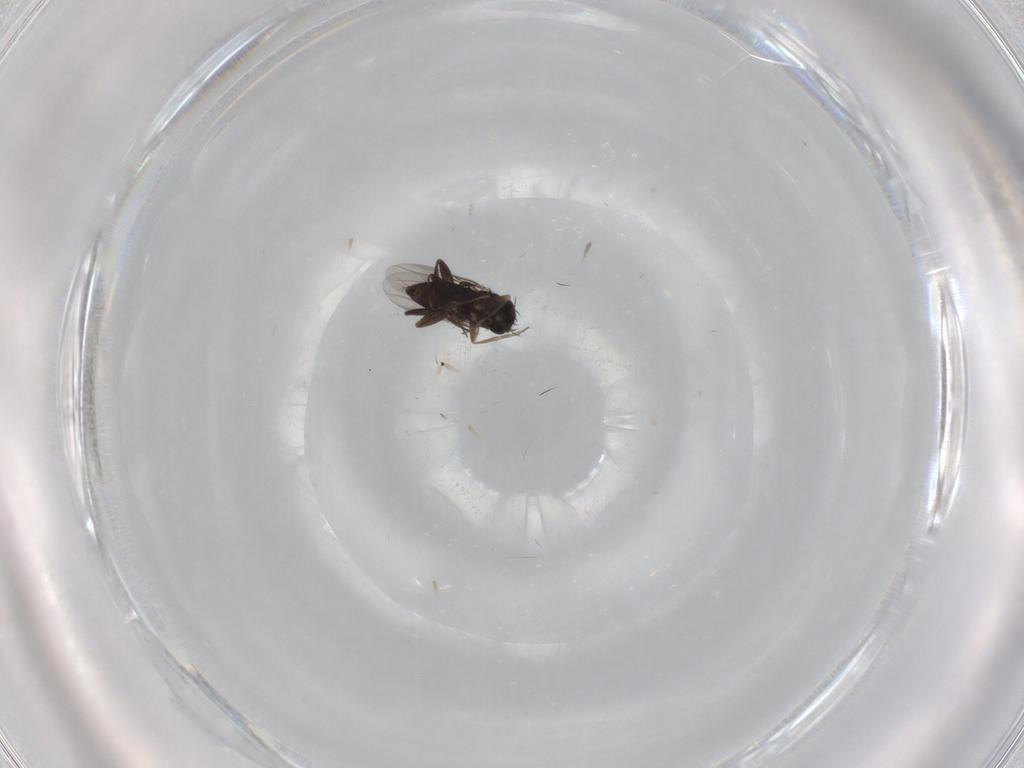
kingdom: Animalia
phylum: Arthropoda
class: Insecta
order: Diptera
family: Phoridae
